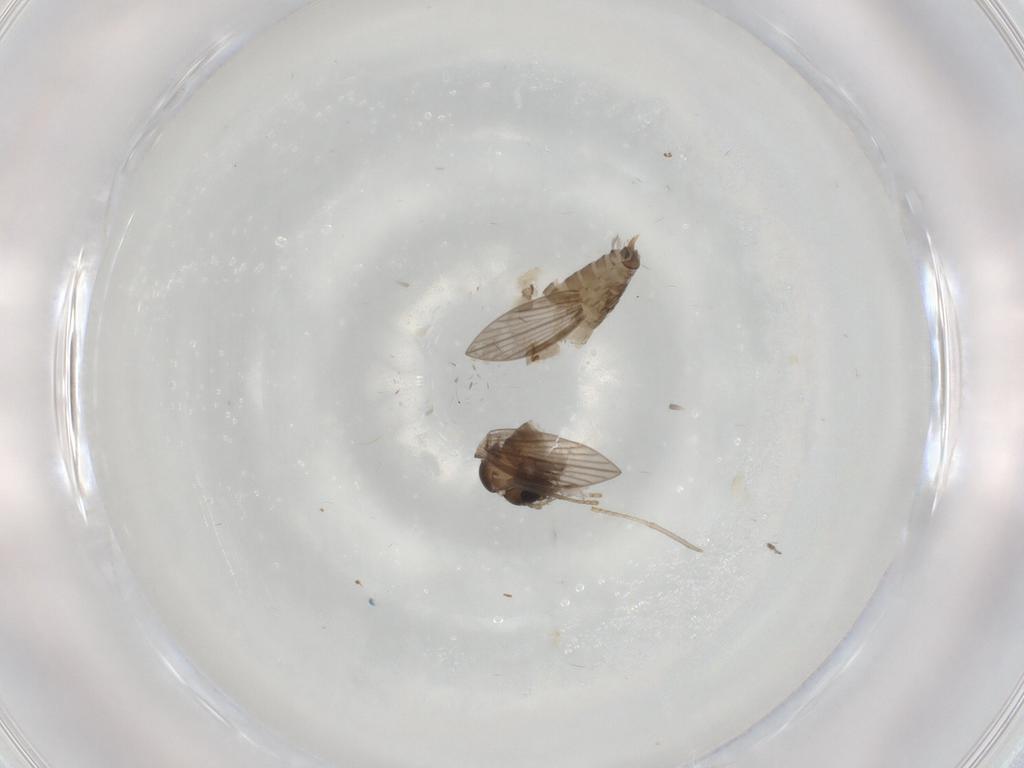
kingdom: Animalia
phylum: Arthropoda
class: Insecta
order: Diptera
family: Psychodidae
